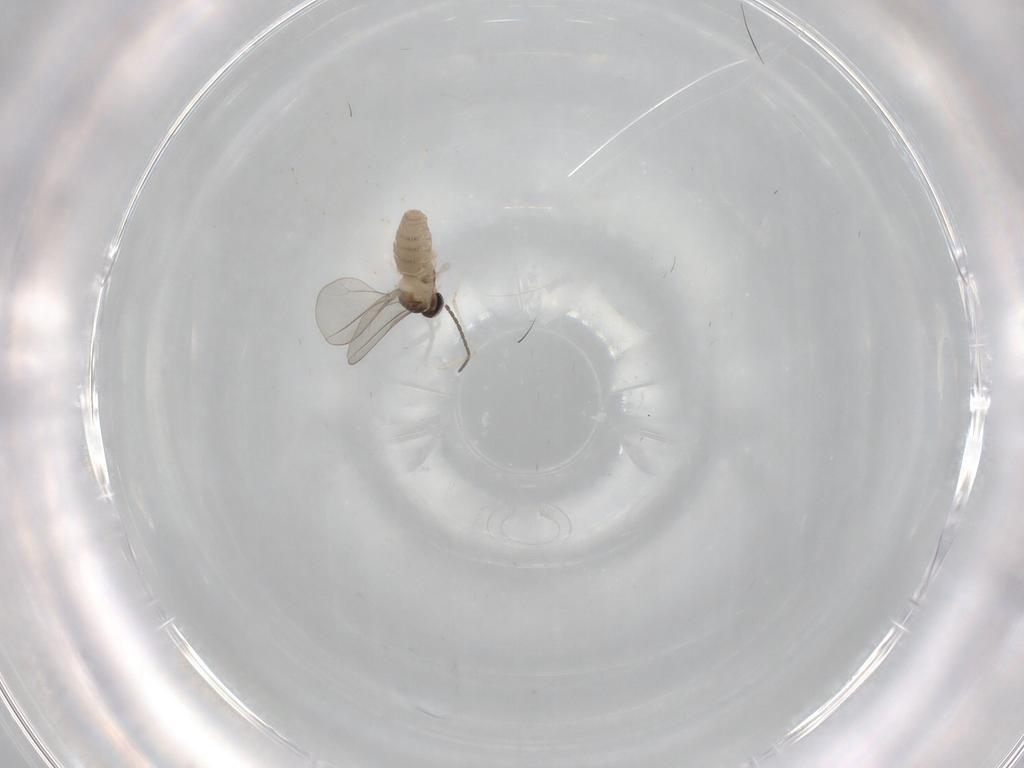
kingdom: Animalia
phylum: Arthropoda
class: Insecta
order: Diptera
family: Cecidomyiidae
